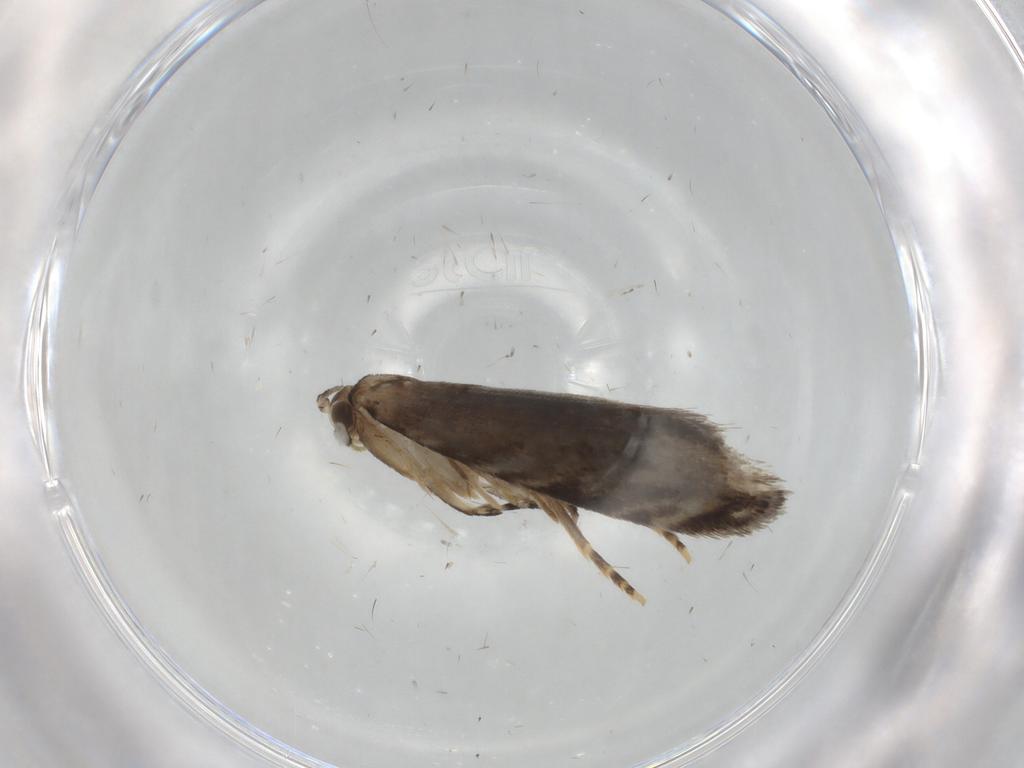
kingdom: Animalia
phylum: Arthropoda
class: Insecta
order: Lepidoptera
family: Tineidae
